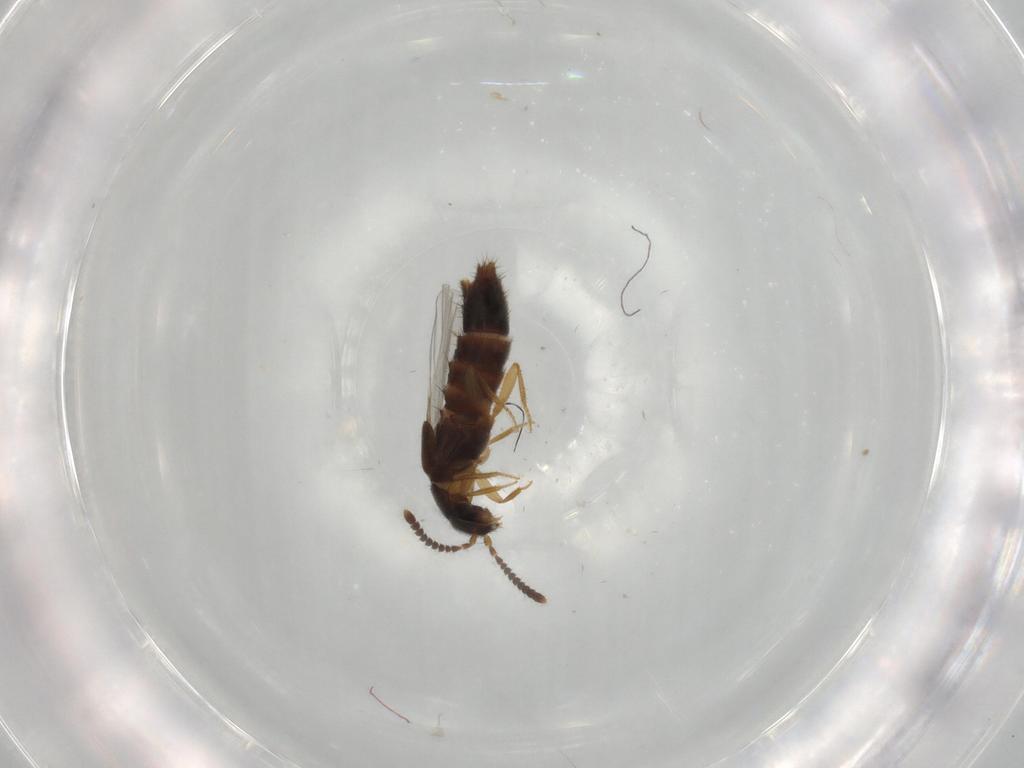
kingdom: Animalia
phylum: Arthropoda
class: Insecta
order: Coleoptera
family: Staphylinidae
